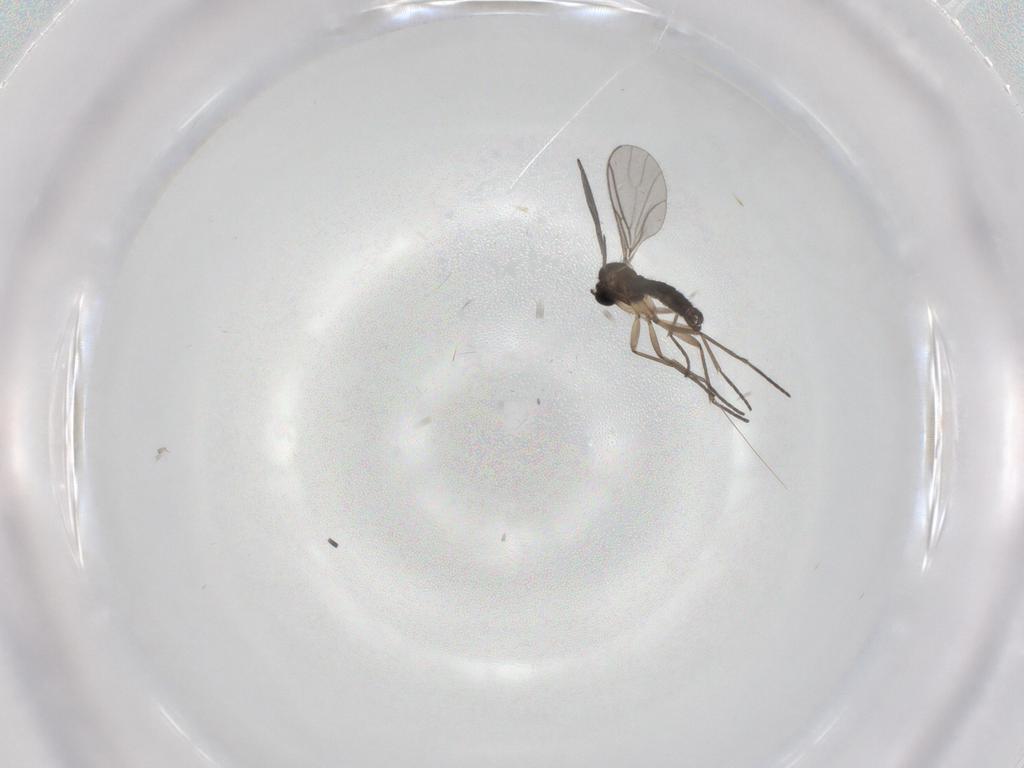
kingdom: Animalia
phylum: Arthropoda
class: Insecta
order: Diptera
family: Sciaridae
